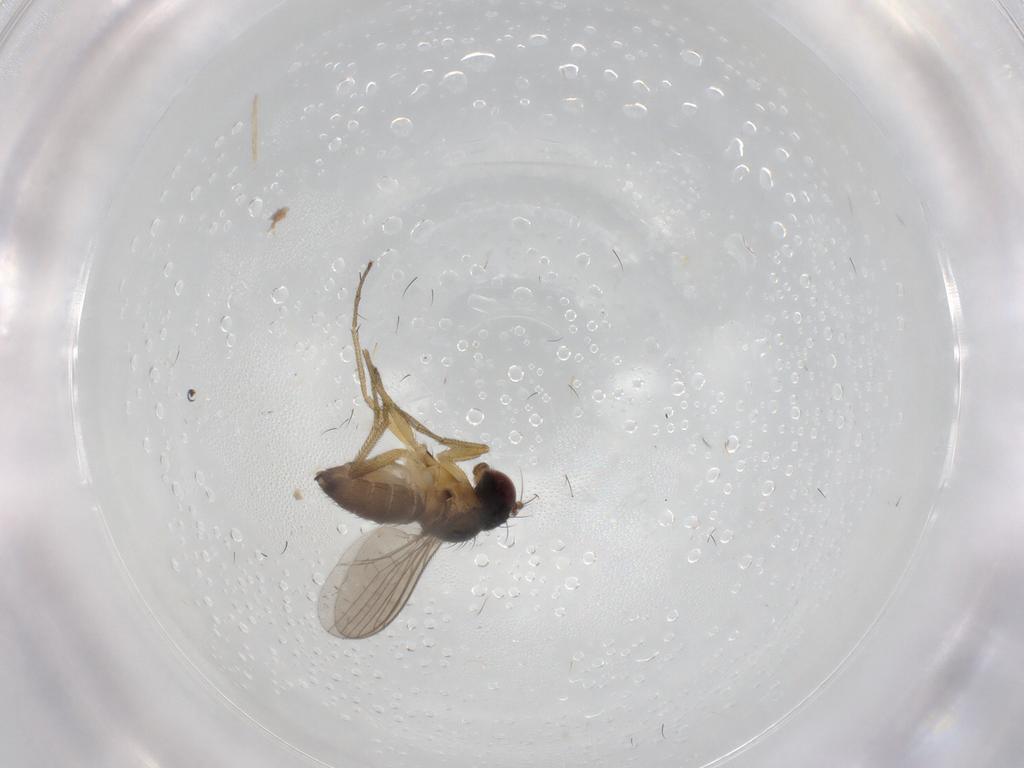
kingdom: Animalia
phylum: Arthropoda
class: Insecta
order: Diptera
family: Dolichopodidae
